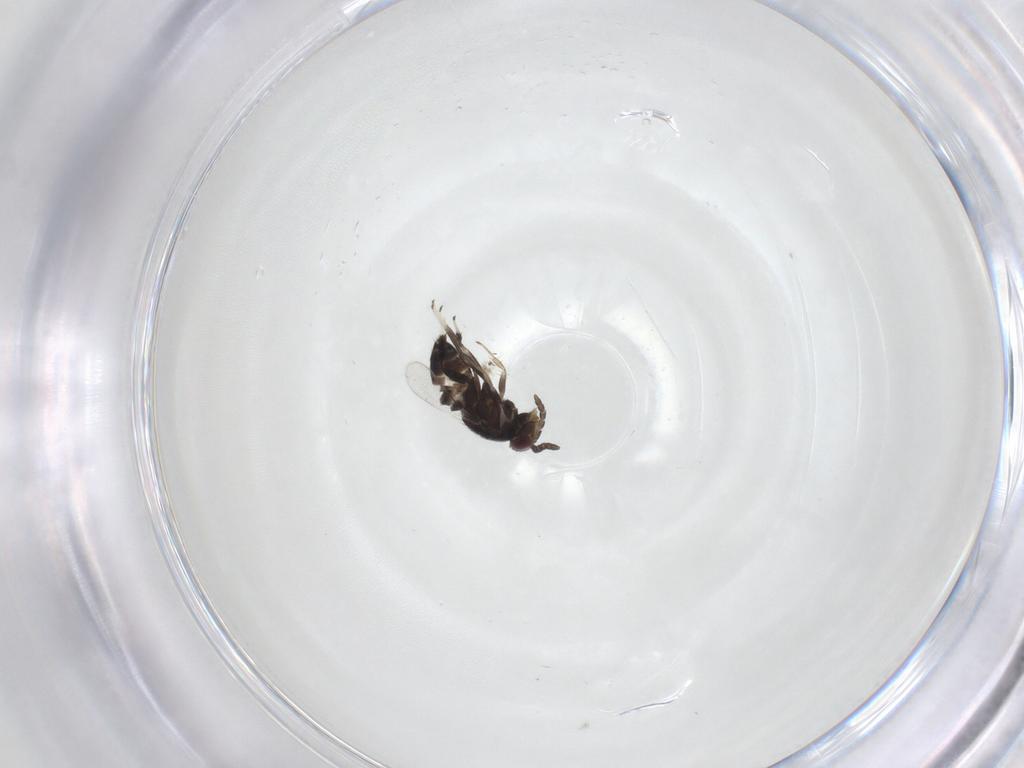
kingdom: Animalia
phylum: Arthropoda
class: Insecta
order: Hymenoptera
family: Aphelinidae
